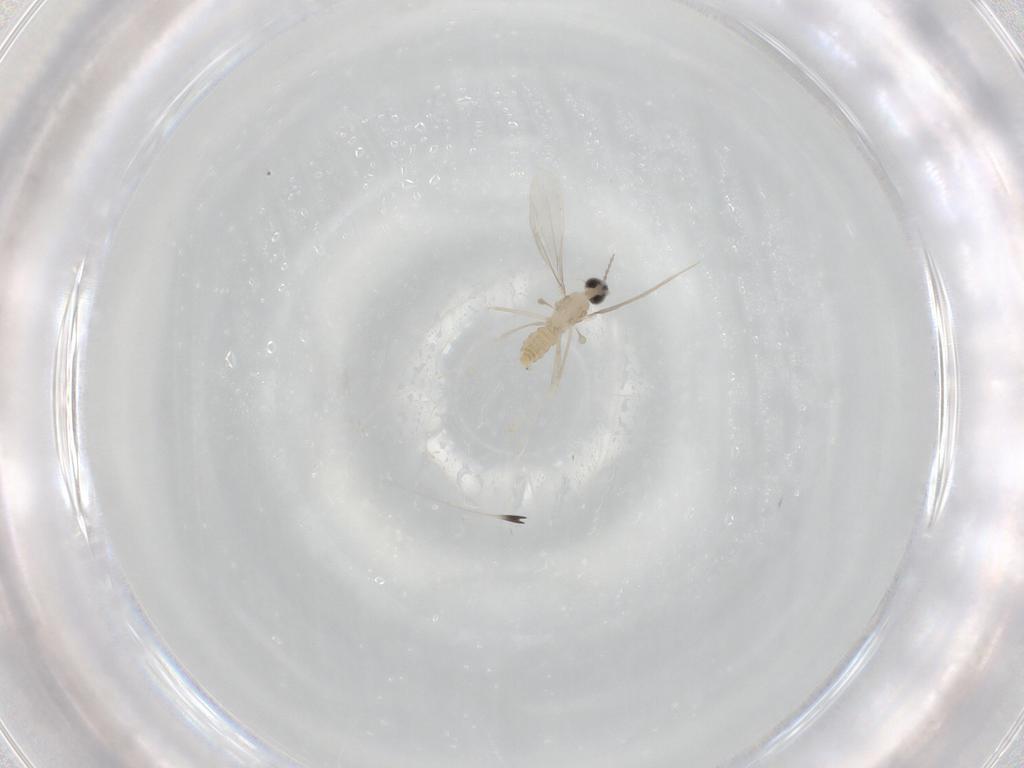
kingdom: Animalia
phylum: Arthropoda
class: Insecta
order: Diptera
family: Cecidomyiidae
